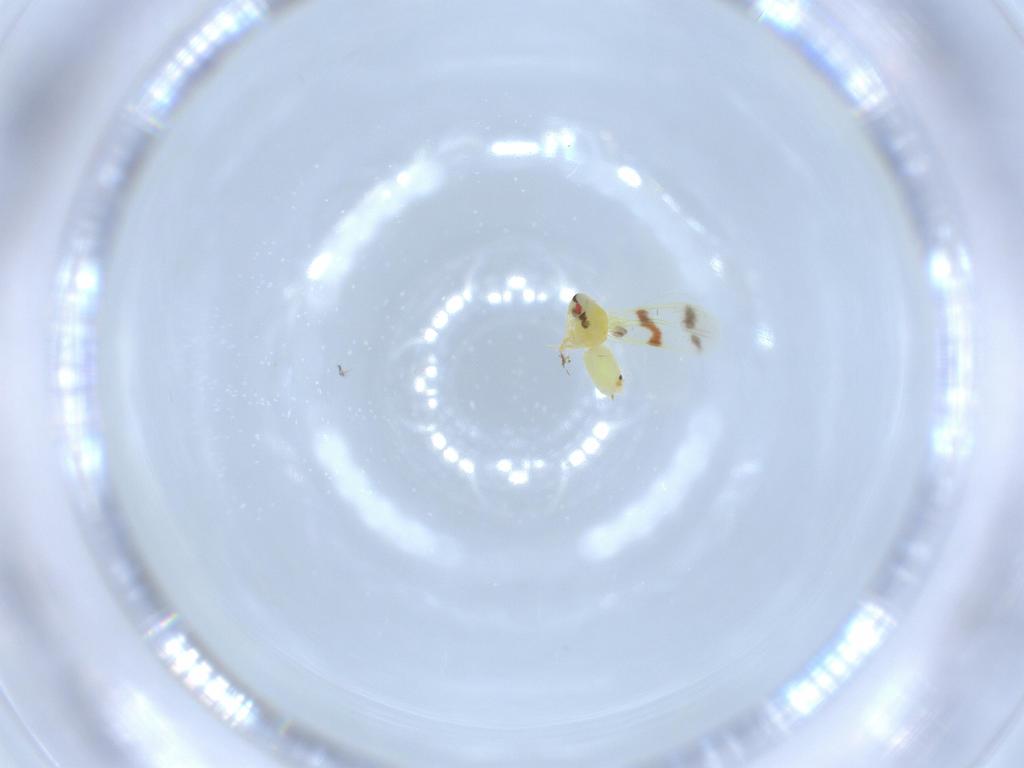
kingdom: Animalia
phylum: Arthropoda
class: Insecta
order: Hemiptera
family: Aleyrodidae
